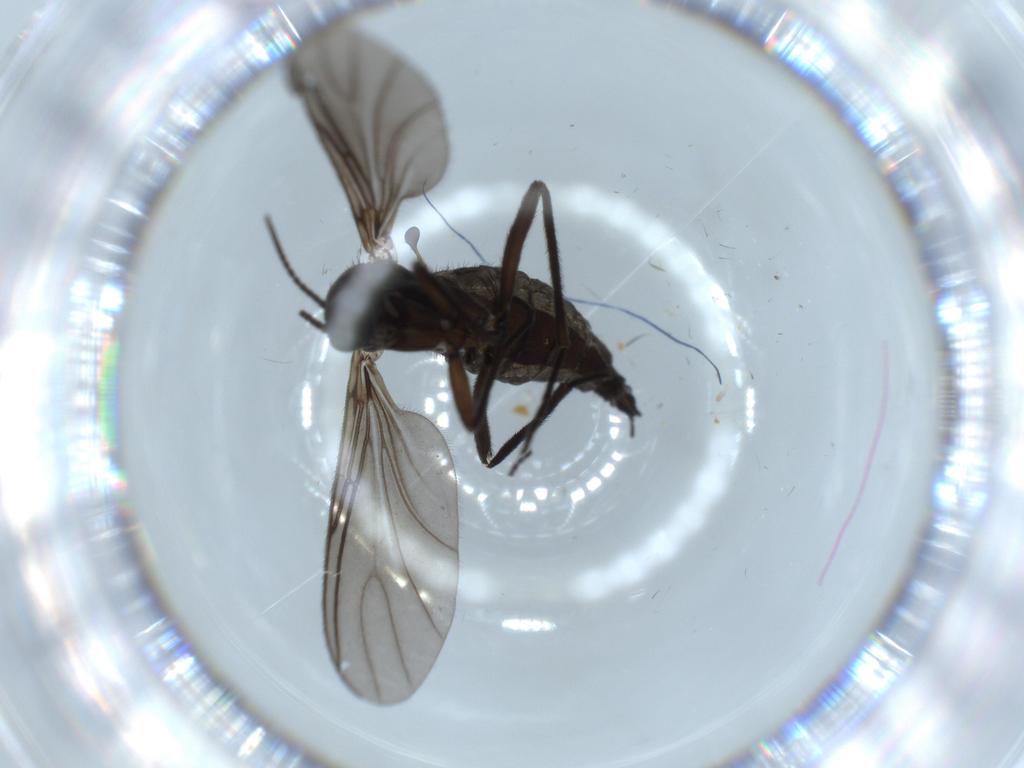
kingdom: Animalia
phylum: Arthropoda
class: Insecta
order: Diptera
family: Sciaridae
